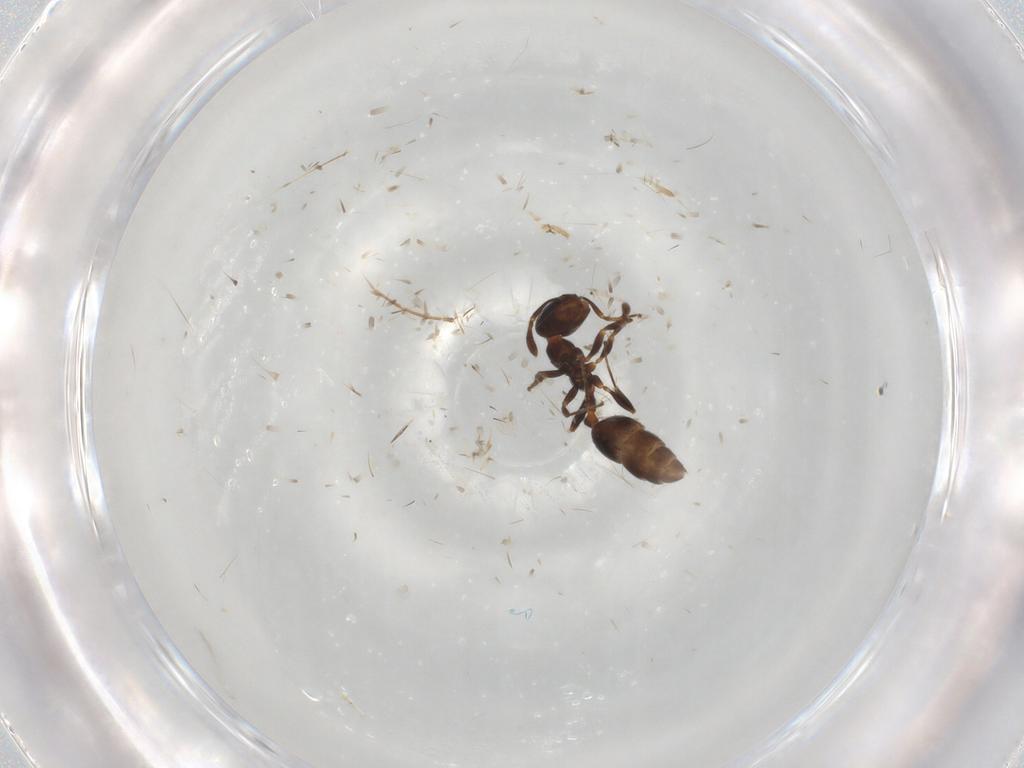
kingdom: Animalia
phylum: Arthropoda
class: Insecta
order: Hymenoptera
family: Formicidae
